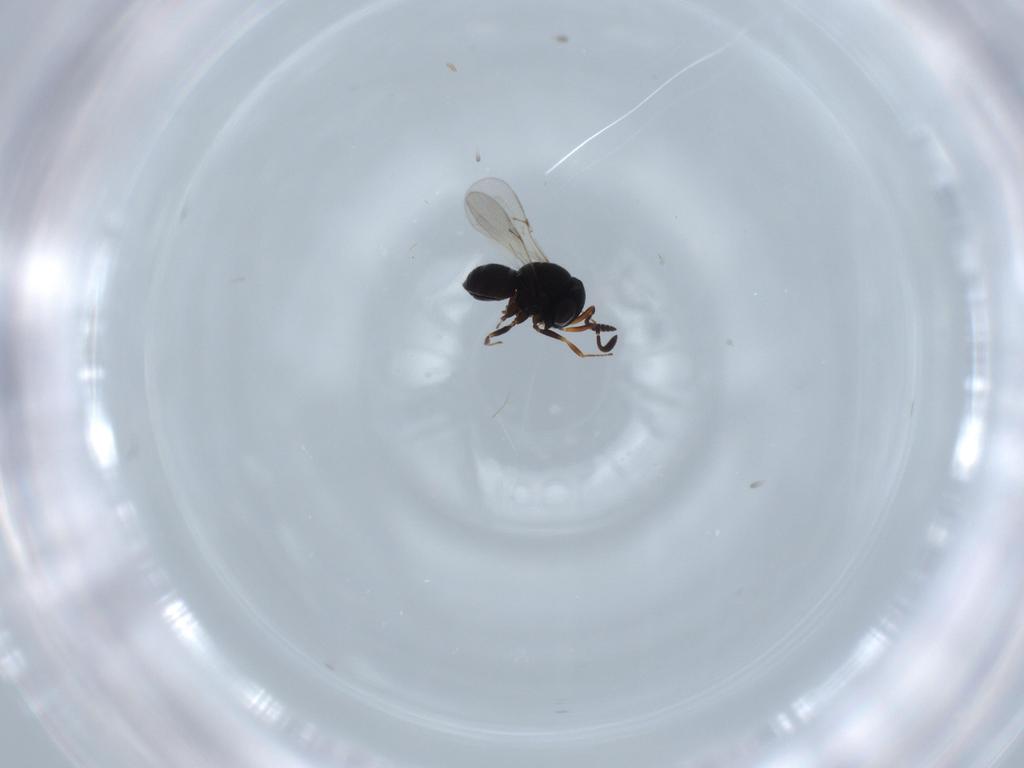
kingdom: Animalia
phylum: Arthropoda
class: Insecta
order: Hymenoptera
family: Scelionidae
